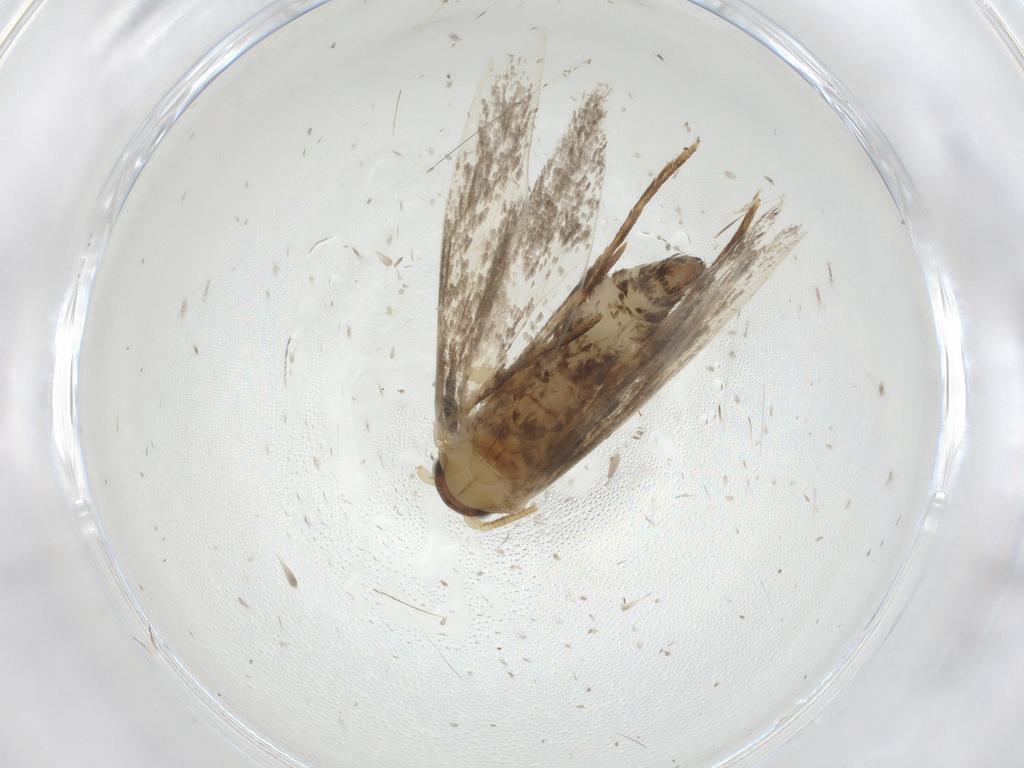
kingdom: Animalia
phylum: Arthropoda
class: Insecta
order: Lepidoptera
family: Tineidae
